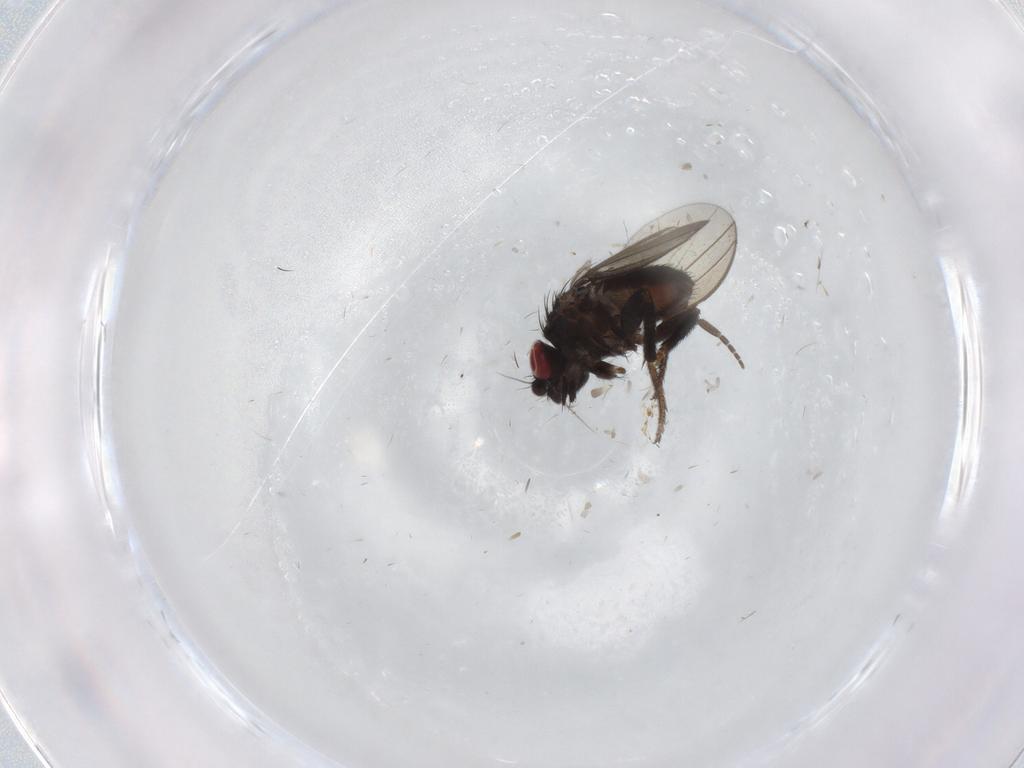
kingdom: Animalia
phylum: Arthropoda
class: Insecta
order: Diptera
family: Milichiidae
